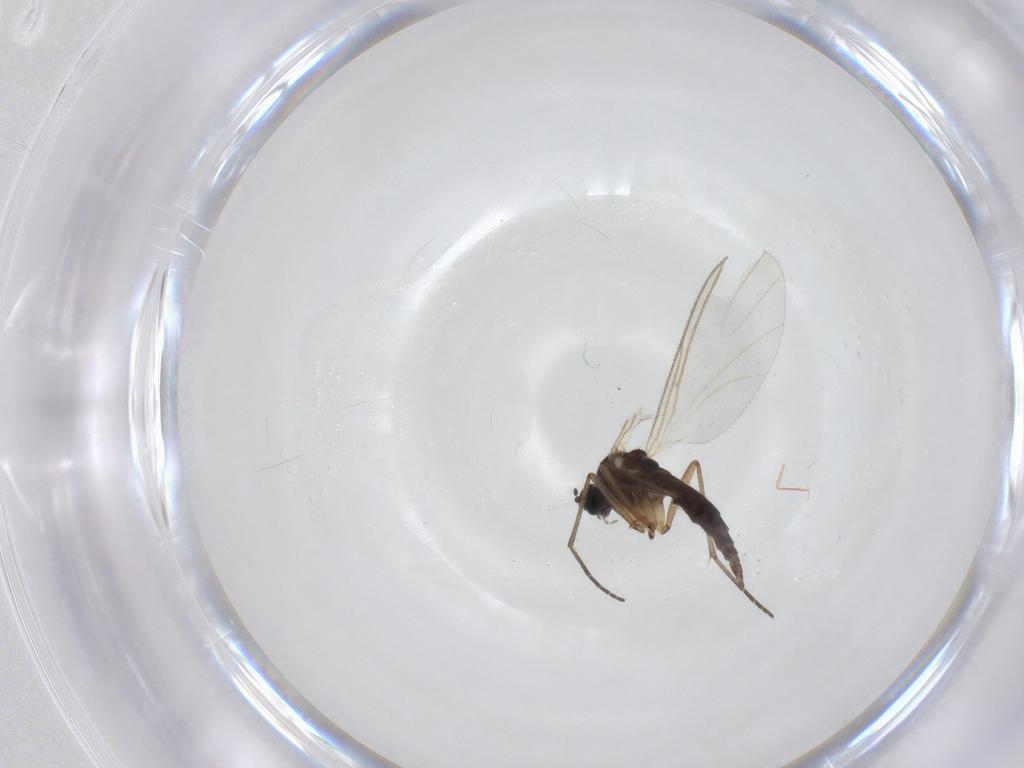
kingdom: Animalia
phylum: Arthropoda
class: Insecta
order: Diptera
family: Sciaridae
